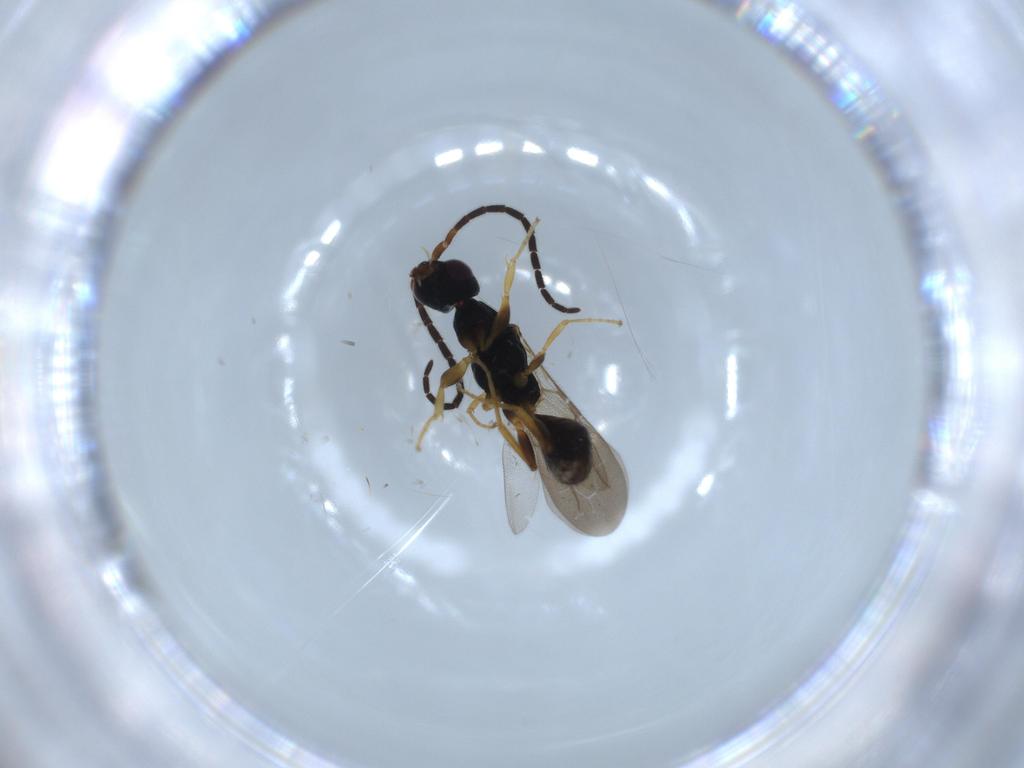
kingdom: Animalia
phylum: Arthropoda
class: Insecta
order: Hymenoptera
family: Bethylidae
